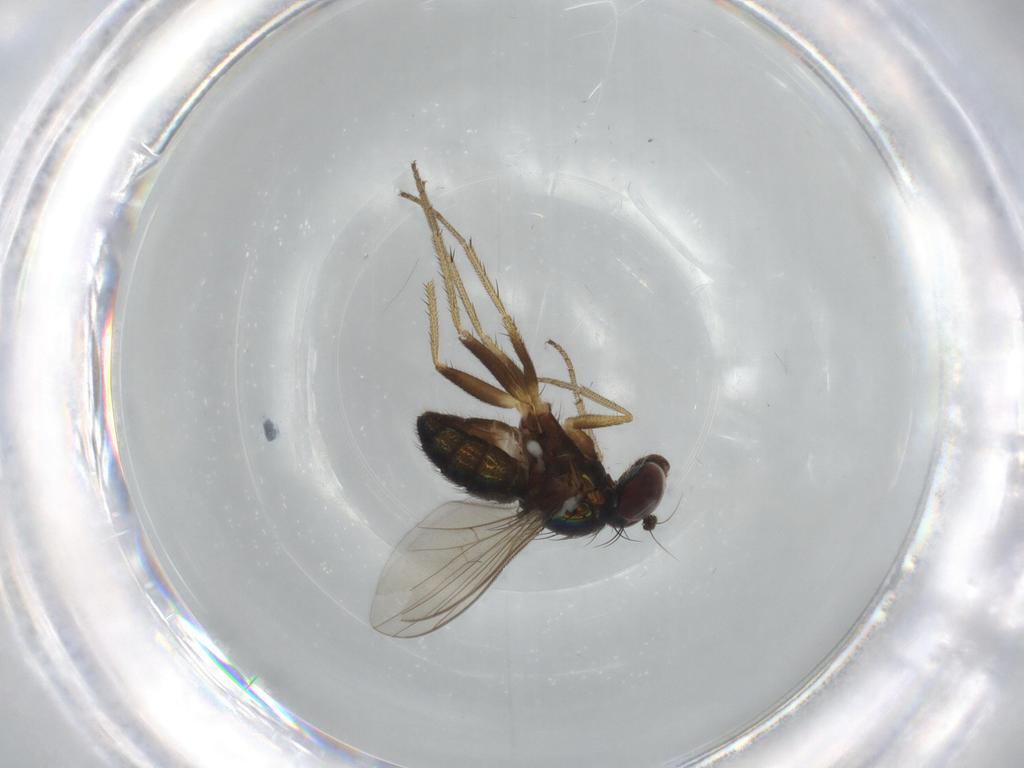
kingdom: Animalia
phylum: Arthropoda
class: Insecta
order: Diptera
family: Dolichopodidae
